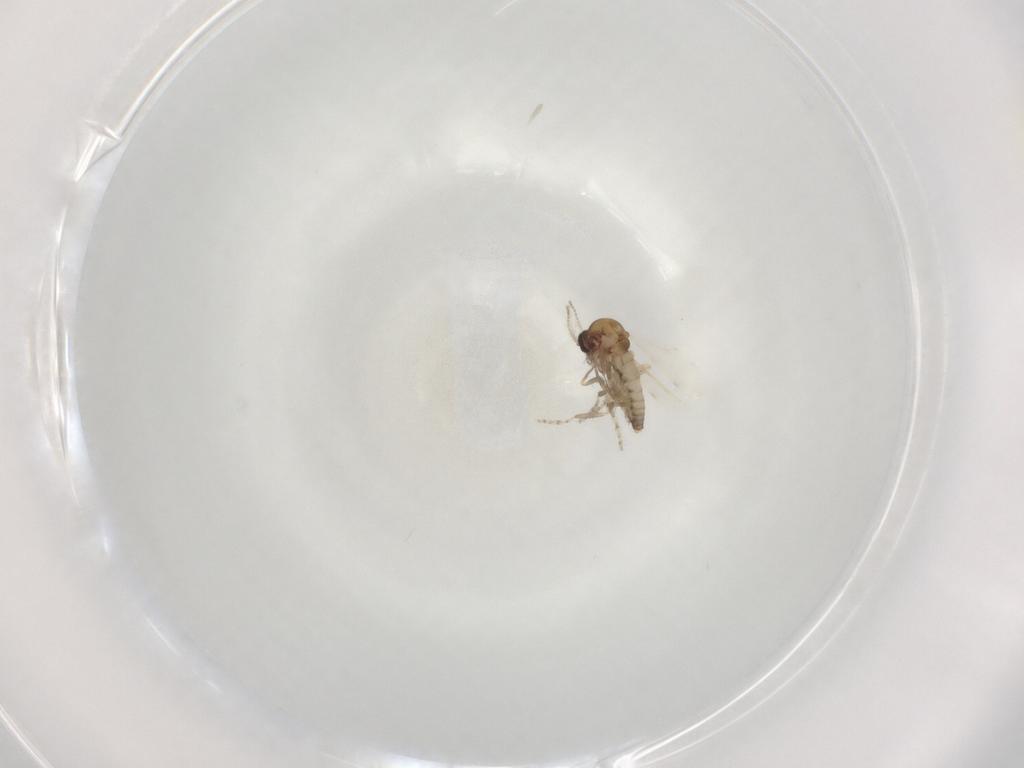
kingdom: Animalia
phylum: Arthropoda
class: Insecta
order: Diptera
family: Ceratopogonidae
